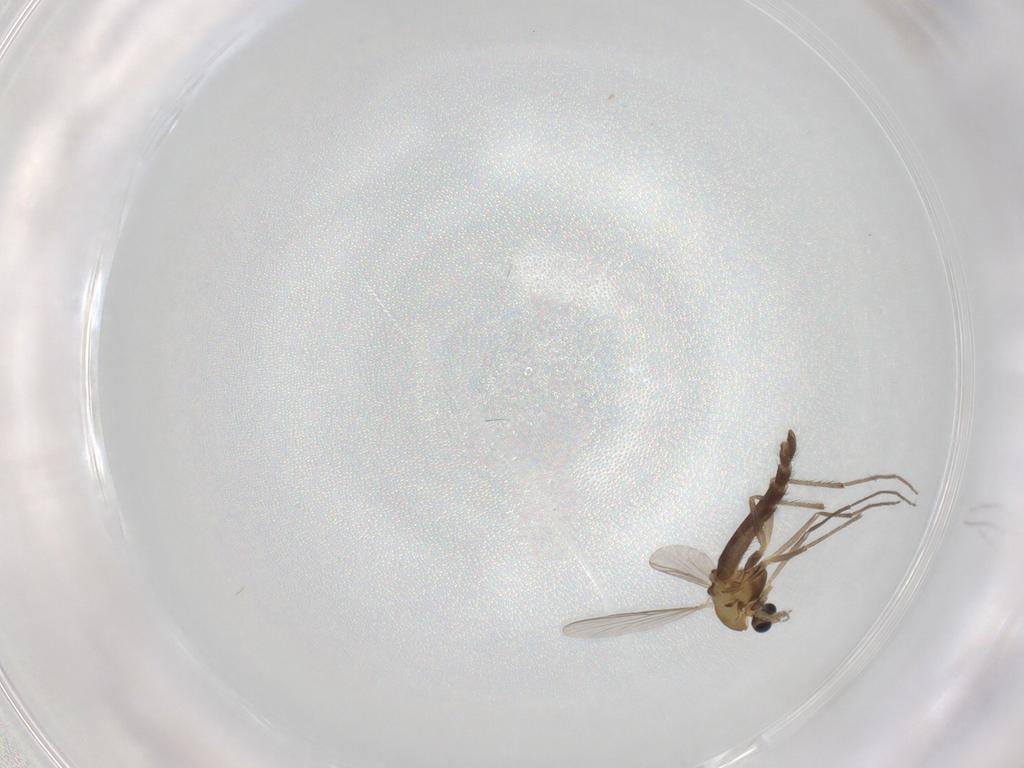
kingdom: Animalia
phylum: Arthropoda
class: Insecta
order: Diptera
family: Chironomidae
